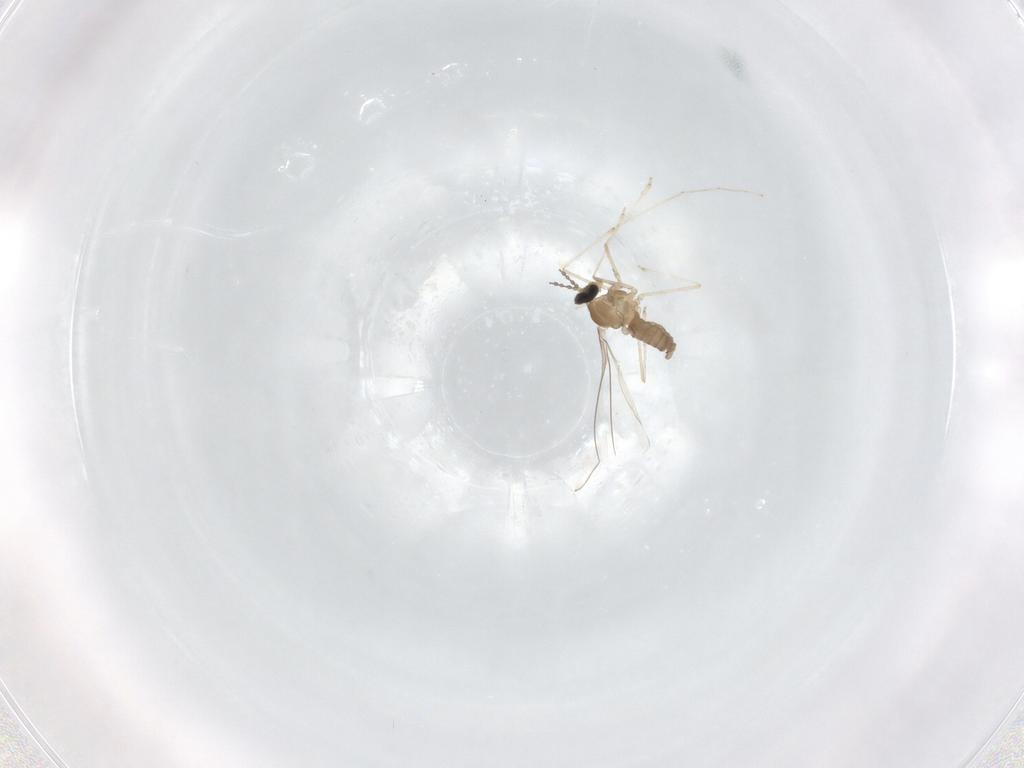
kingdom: Animalia
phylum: Arthropoda
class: Insecta
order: Diptera
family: Cecidomyiidae
